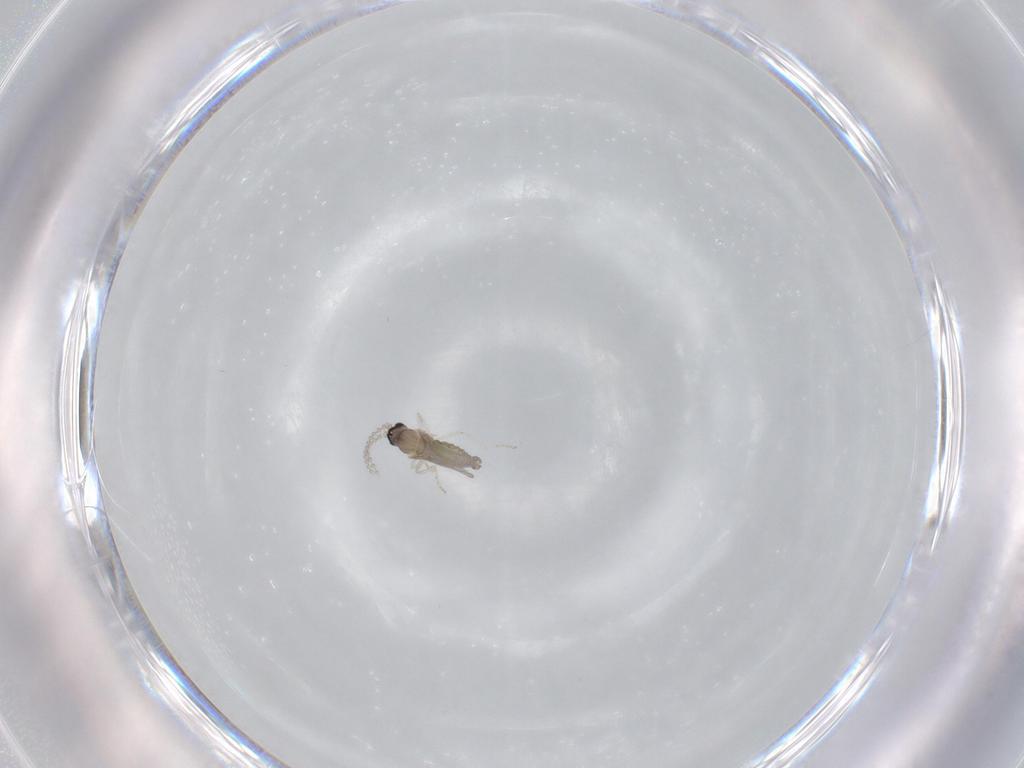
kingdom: Animalia
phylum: Arthropoda
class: Insecta
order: Diptera
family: Cecidomyiidae
